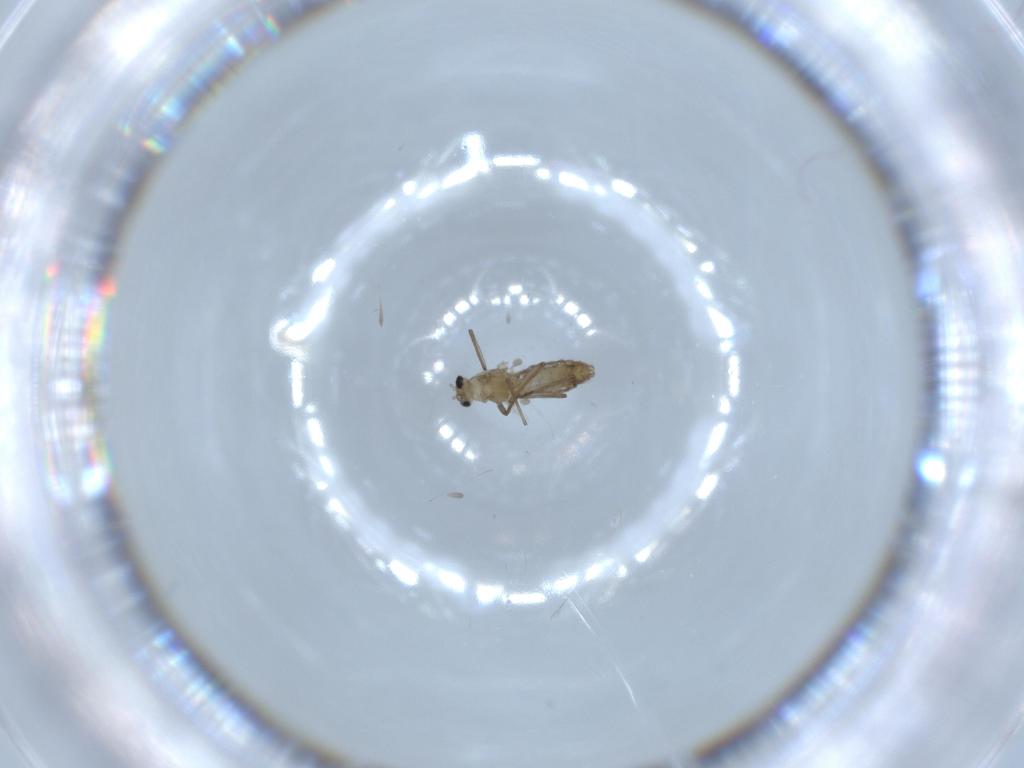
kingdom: Animalia
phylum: Arthropoda
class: Insecta
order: Diptera
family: Chironomidae
